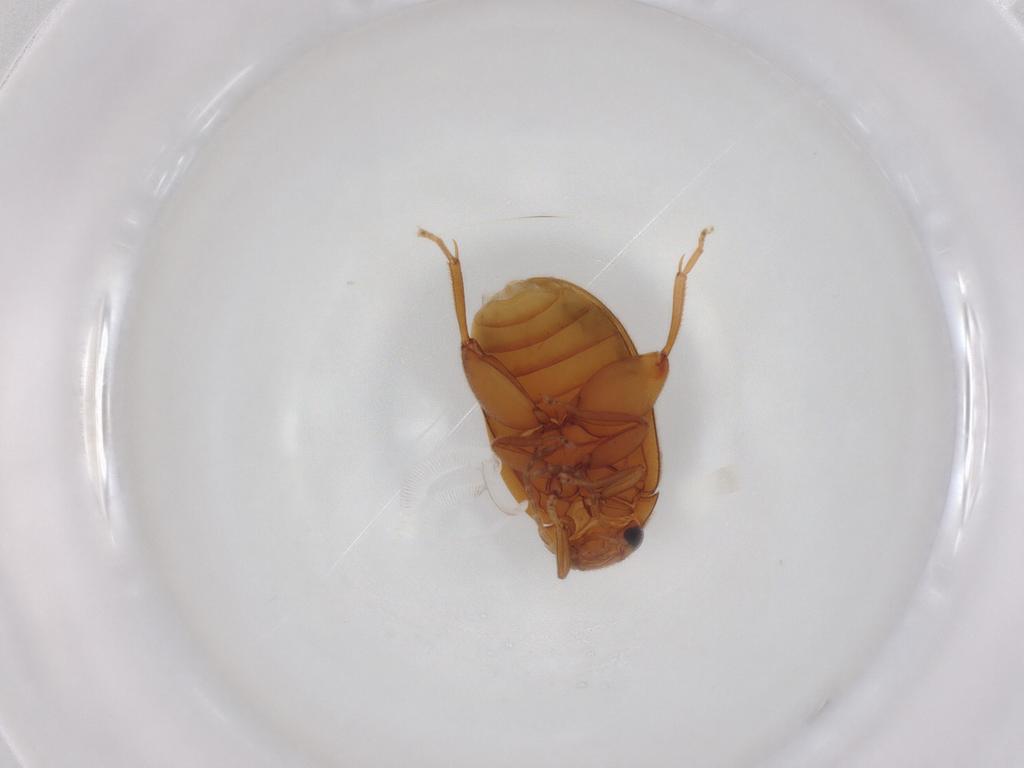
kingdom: Animalia
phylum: Arthropoda
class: Insecta
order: Coleoptera
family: Scirtidae
